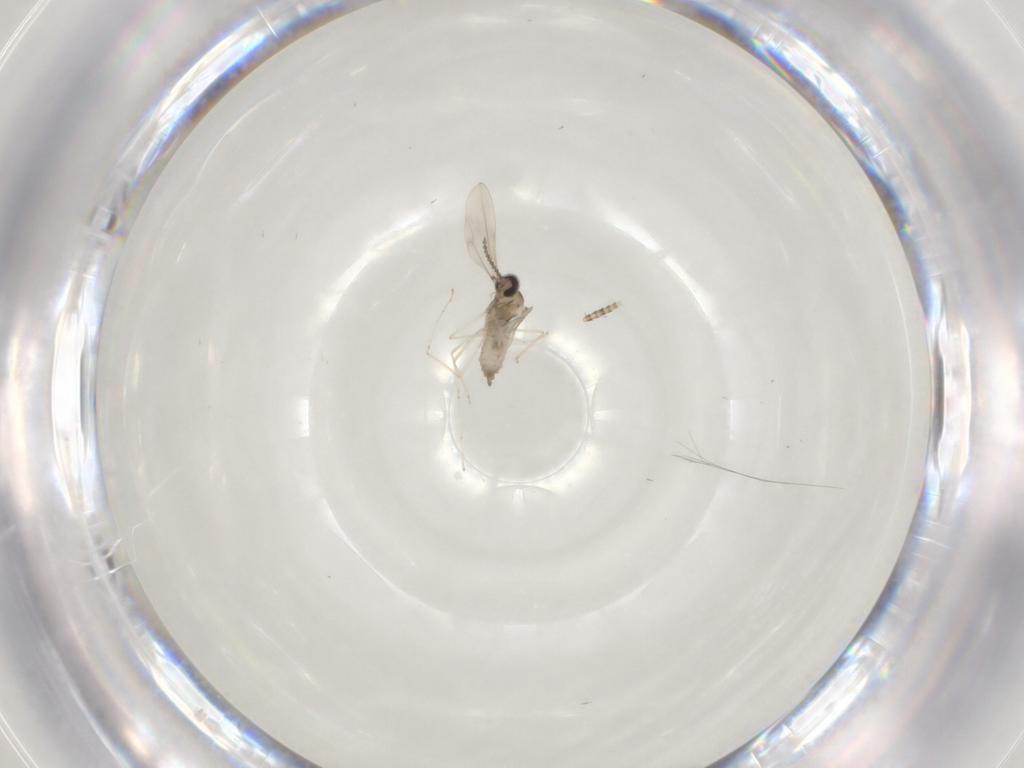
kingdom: Animalia
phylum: Arthropoda
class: Insecta
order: Diptera
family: Cecidomyiidae
